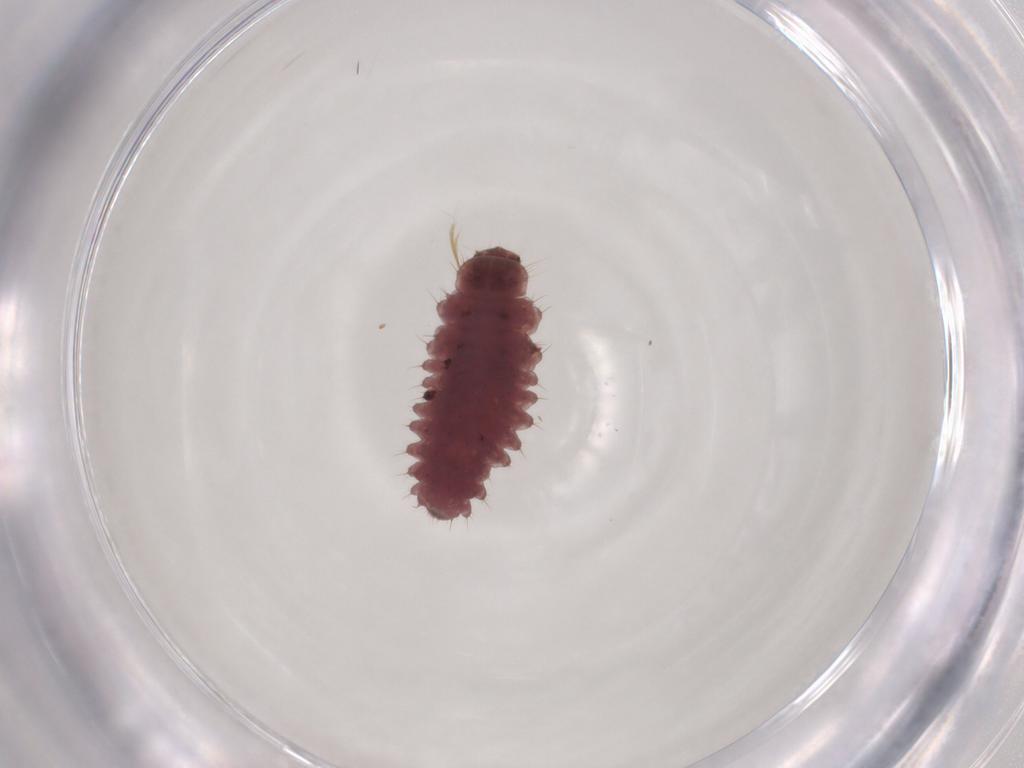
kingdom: Animalia
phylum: Arthropoda
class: Insecta
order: Coleoptera
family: Coccinellidae
